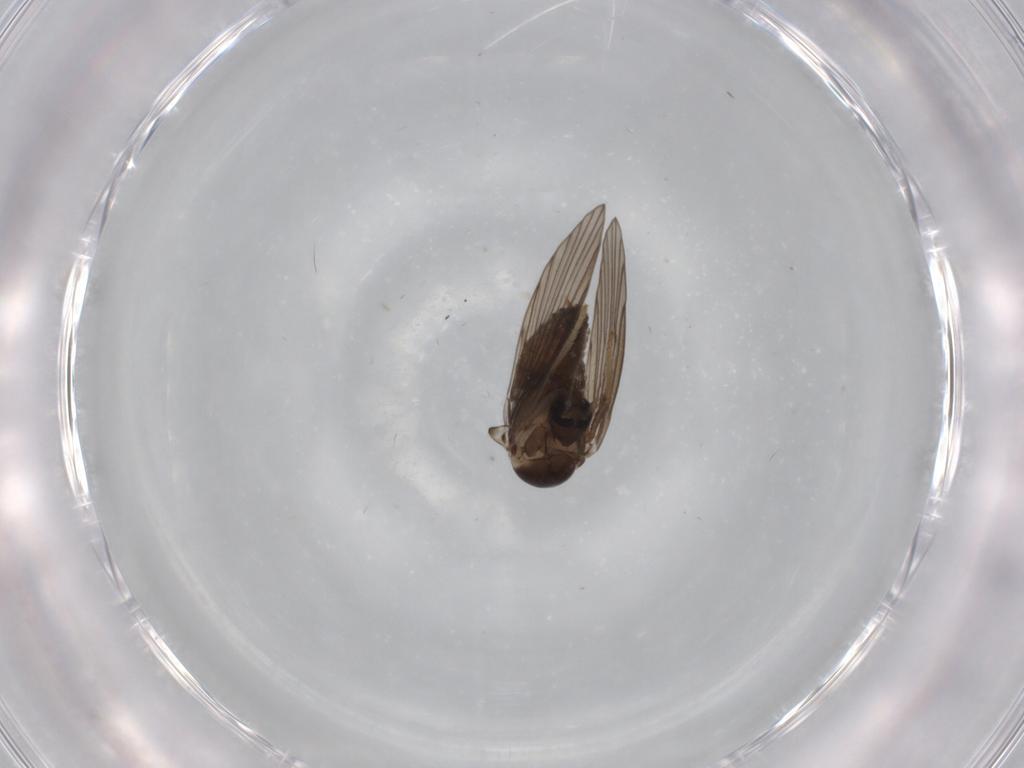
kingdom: Animalia
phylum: Arthropoda
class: Insecta
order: Diptera
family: Psychodidae
